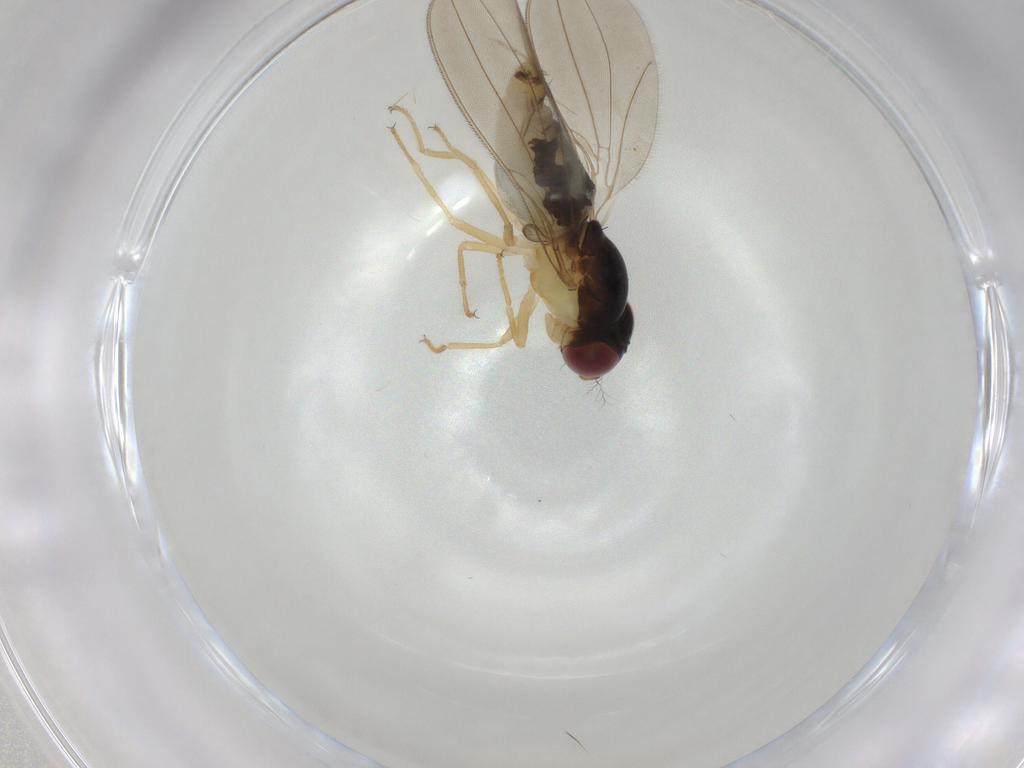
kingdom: Animalia
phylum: Arthropoda
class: Insecta
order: Diptera
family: Asteiidae
